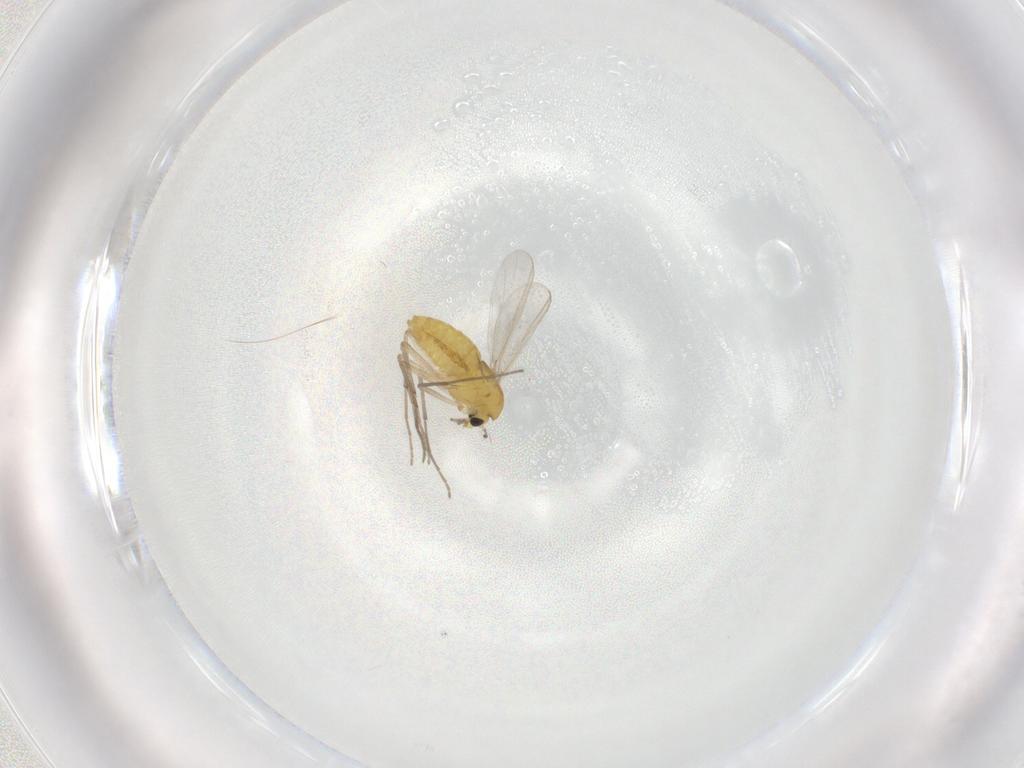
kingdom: Animalia
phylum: Arthropoda
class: Insecta
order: Diptera
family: Chironomidae
